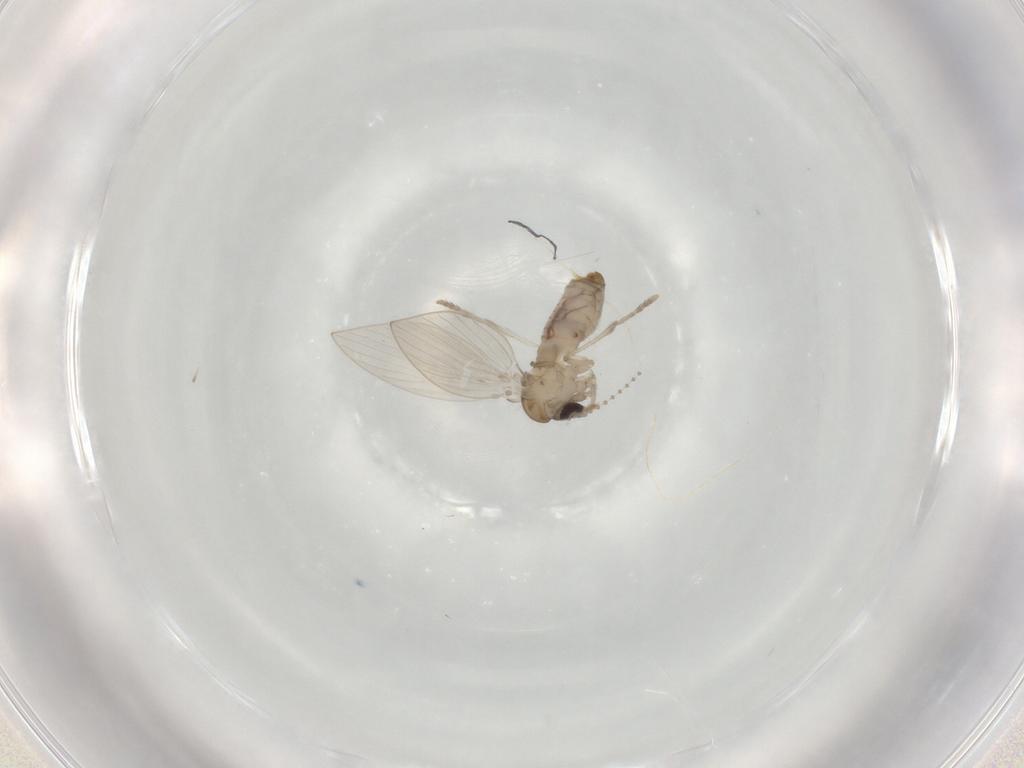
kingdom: Animalia
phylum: Arthropoda
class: Insecta
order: Diptera
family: Psychodidae
